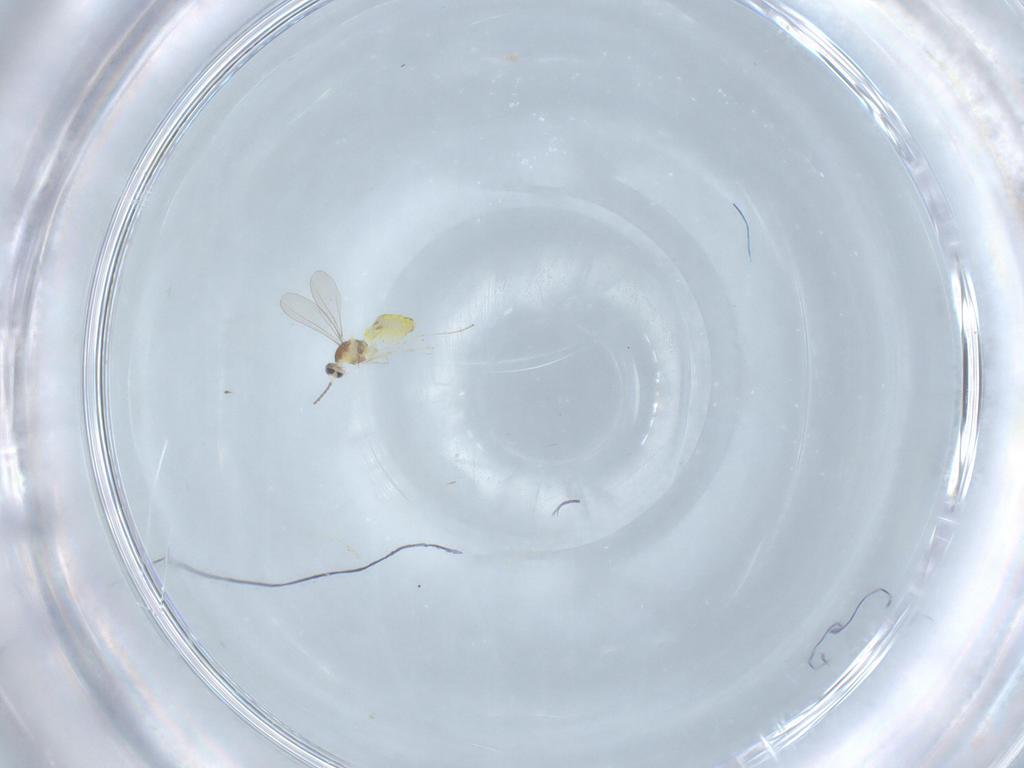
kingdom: Animalia
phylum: Arthropoda
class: Insecta
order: Diptera
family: Cecidomyiidae
